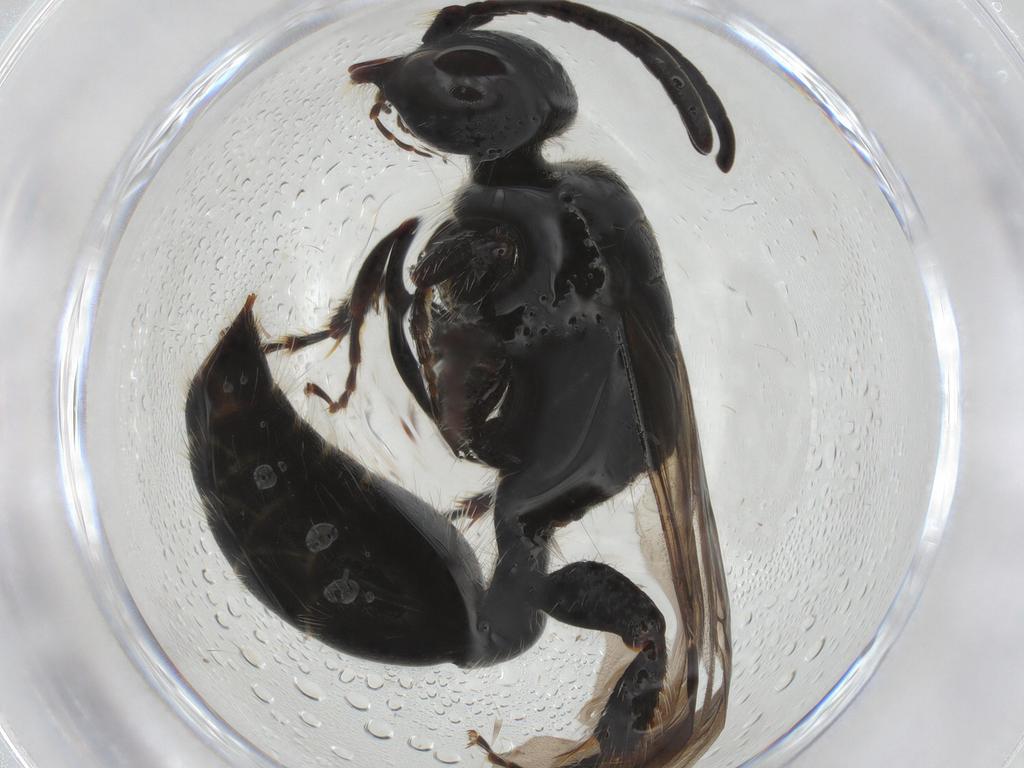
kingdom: Animalia
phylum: Arthropoda
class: Insecta
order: Hymenoptera
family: Tiphiidae
